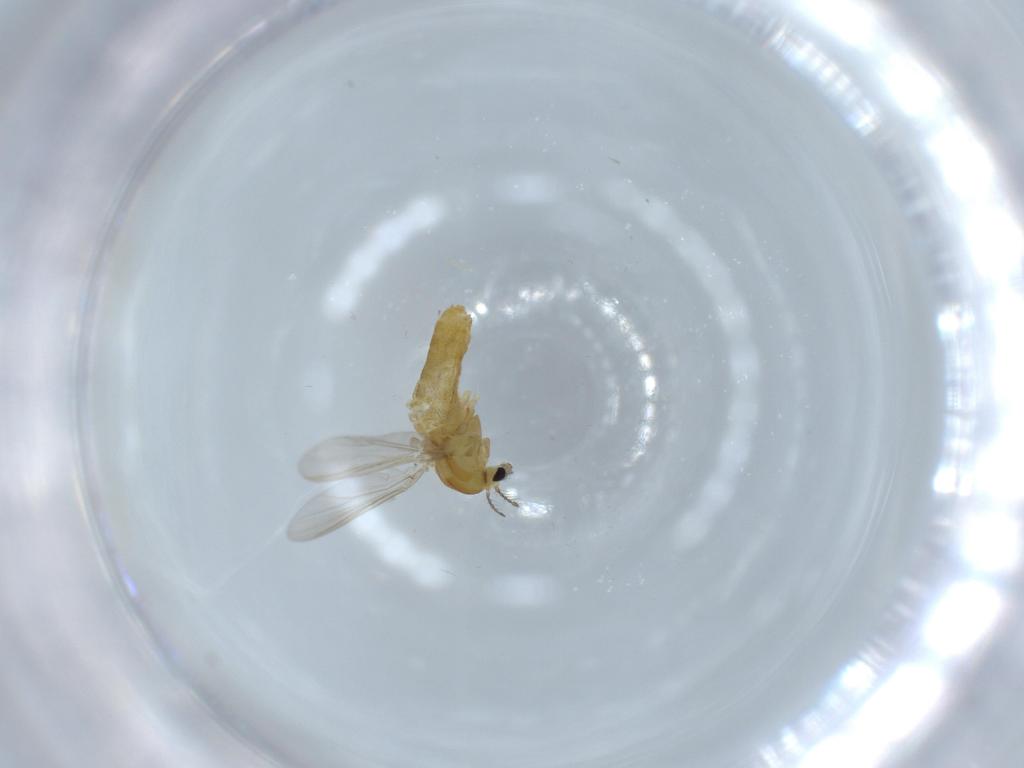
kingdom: Animalia
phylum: Arthropoda
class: Insecta
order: Diptera
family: Chironomidae
